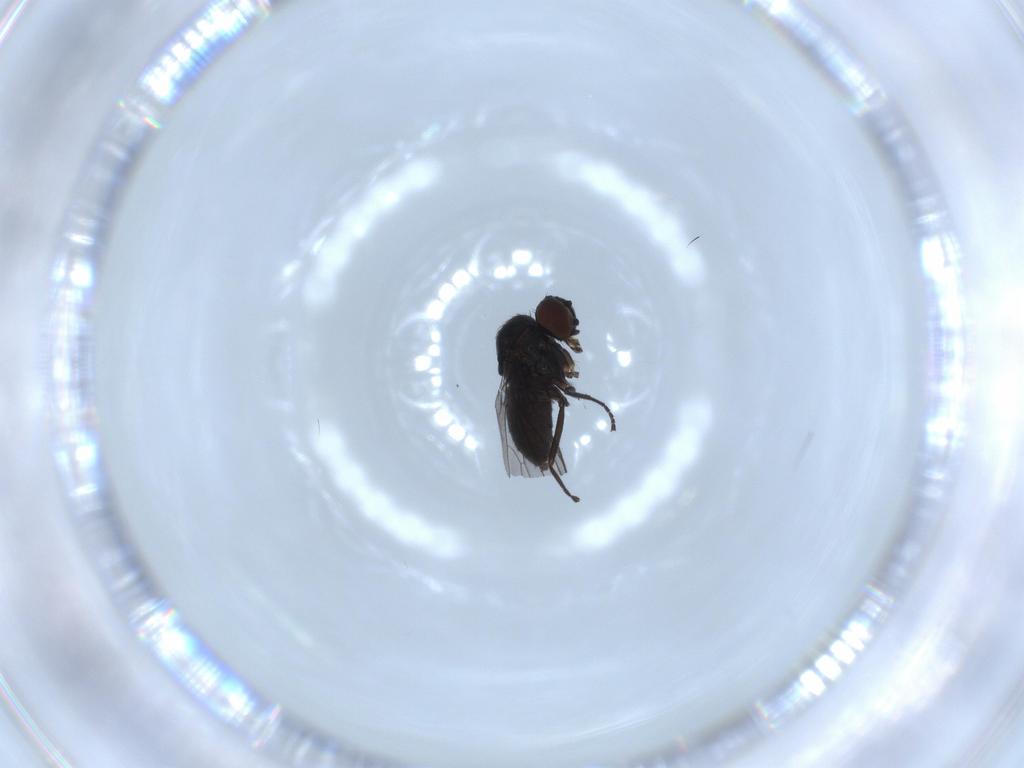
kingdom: Animalia
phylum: Arthropoda
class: Insecta
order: Diptera
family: Dolichopodidae
